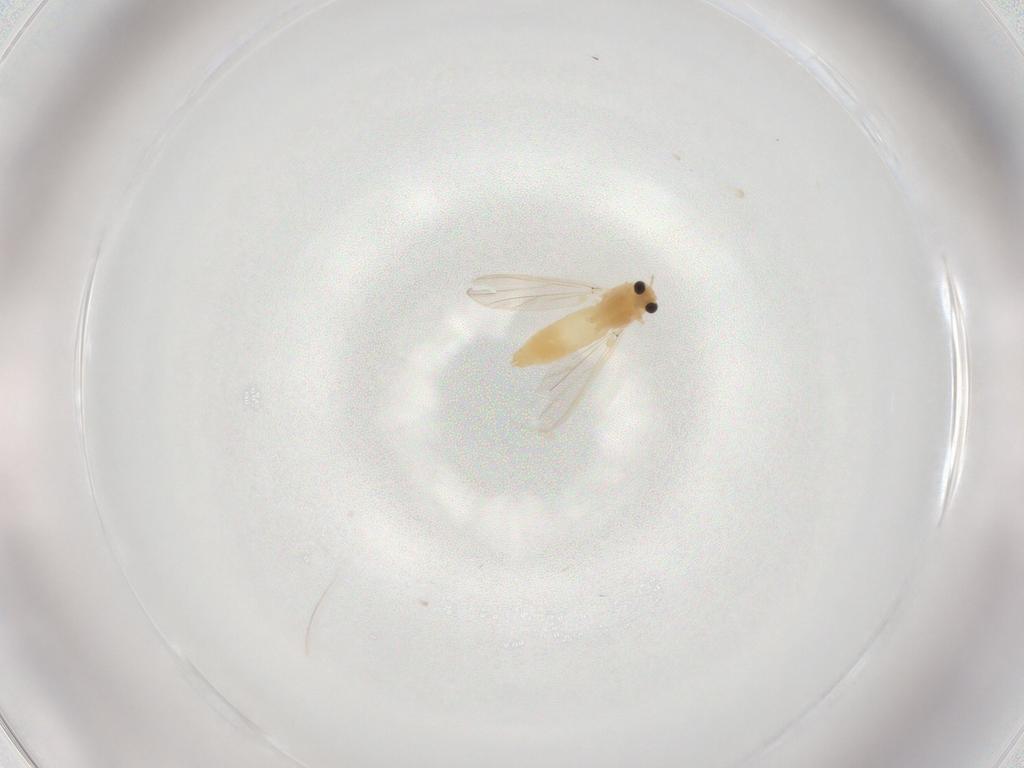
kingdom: Animalia
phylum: Arthropoda
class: Insecta
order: Diptera
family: Chironomidae
